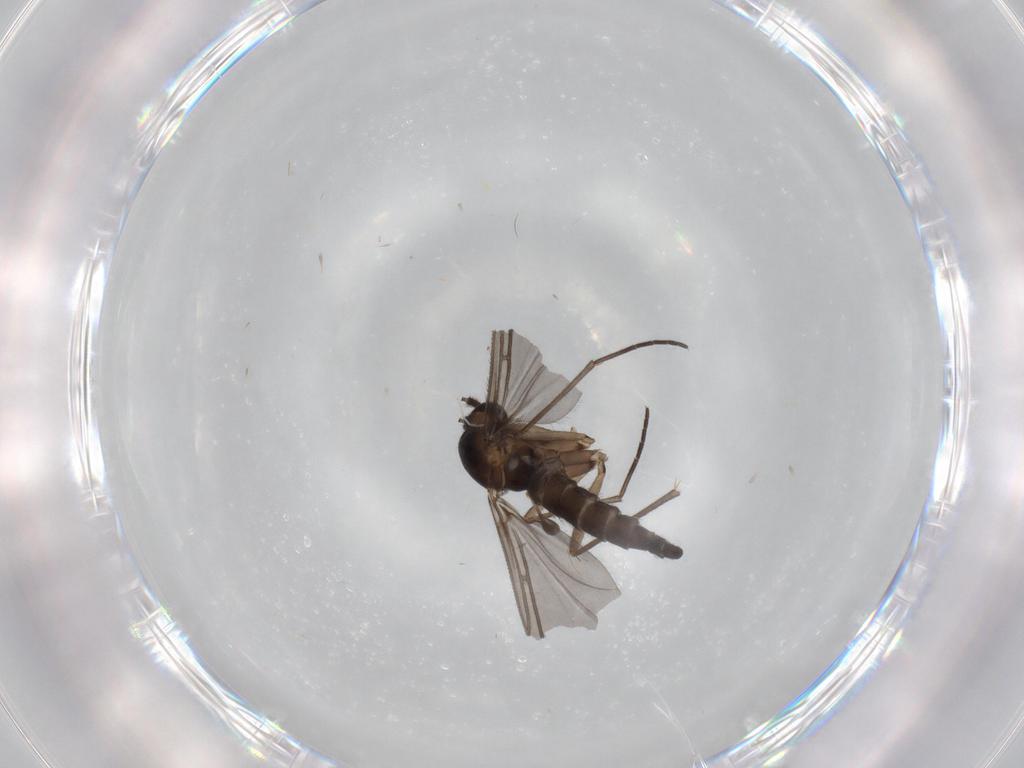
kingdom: Animalia
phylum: Arthropoda
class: Insecta
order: Diptera
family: Sciaridae
